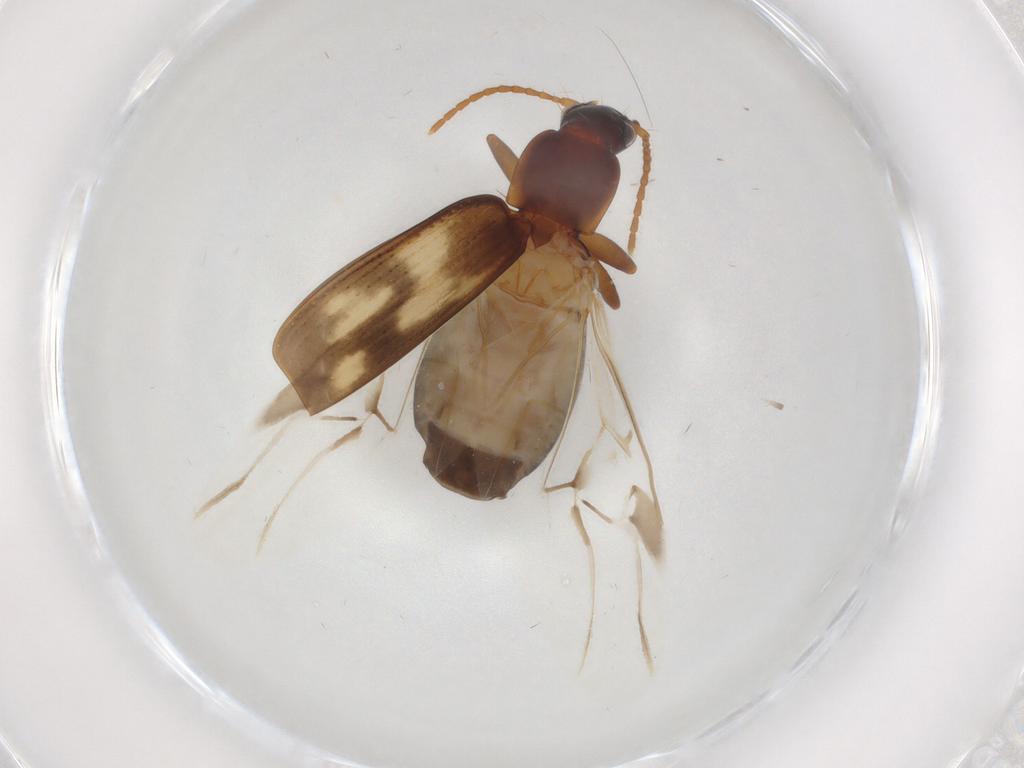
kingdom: Animalia
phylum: Arthropoda
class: Insecta
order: Coleoptera
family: Carabidae
